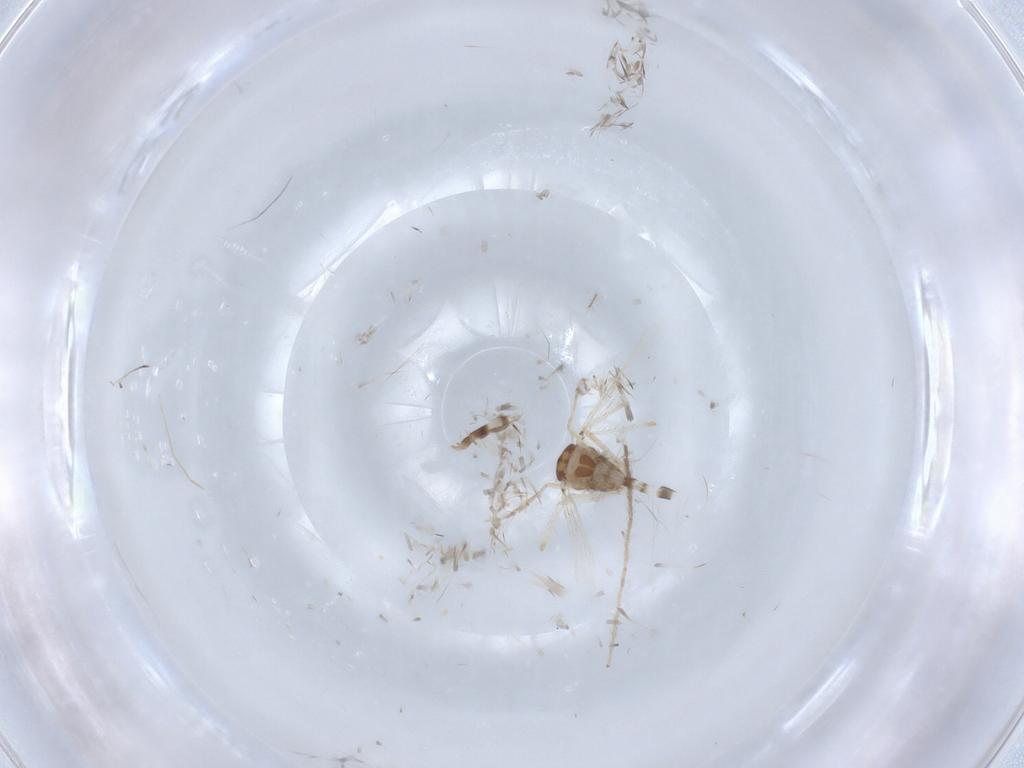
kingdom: Animalia
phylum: Arthropoda
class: Insecta
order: Diptera
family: Chironomidae
